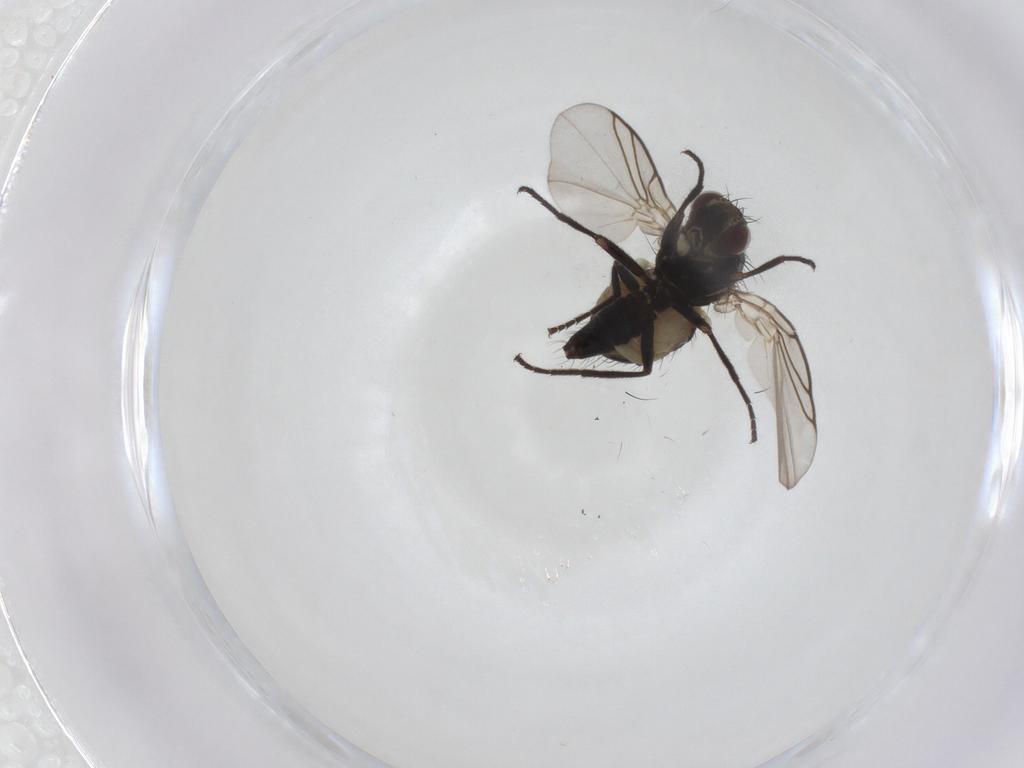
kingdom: Animalia
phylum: Arthropoda
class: Insecta
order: Diptera
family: Agromyzidae
